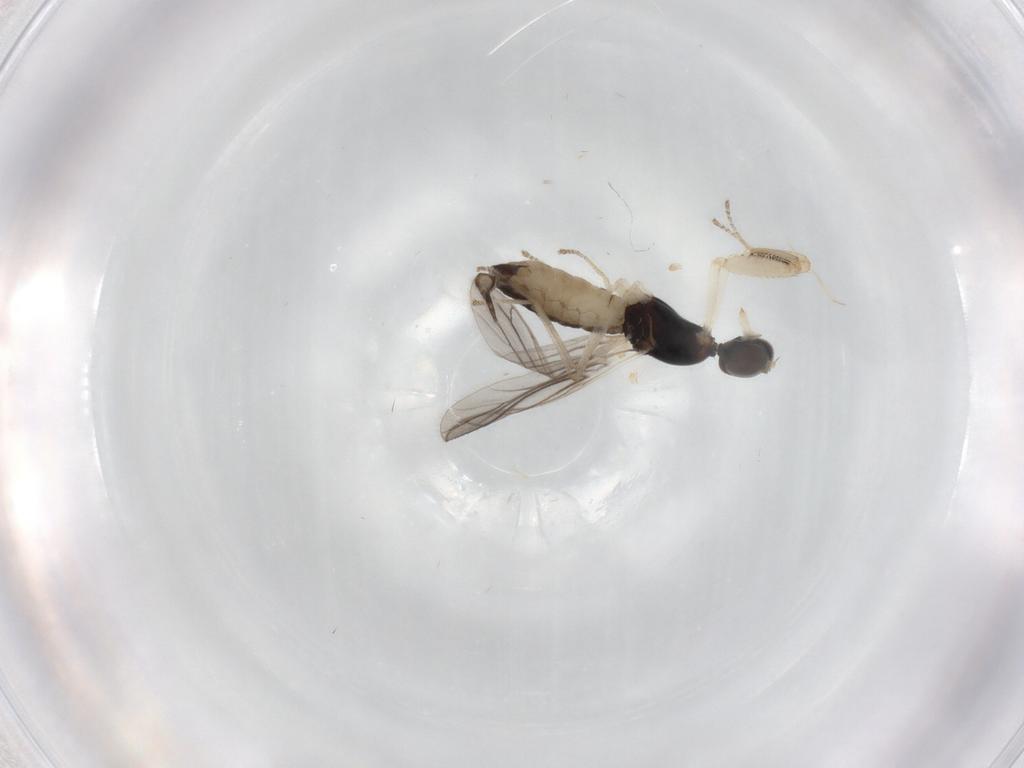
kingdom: Animalia
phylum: Arthropoda
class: Insecta
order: Diptera
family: Empididae
